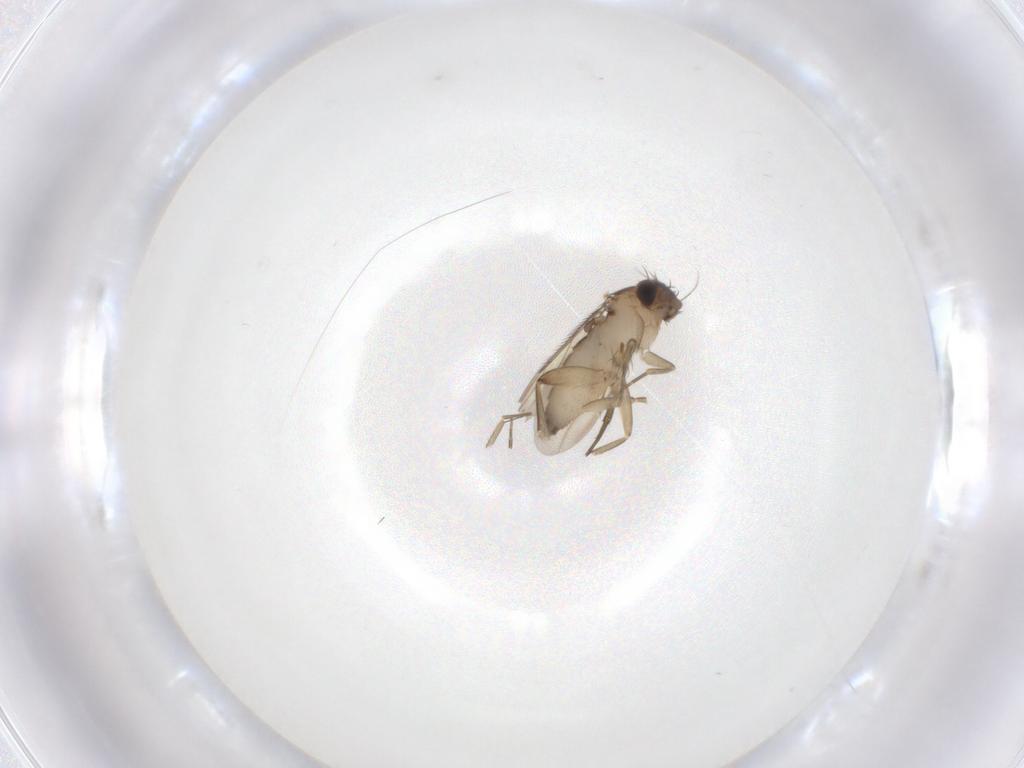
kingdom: Animalia
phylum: Arthropoda
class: Insecta
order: Diptera
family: Phoridae
